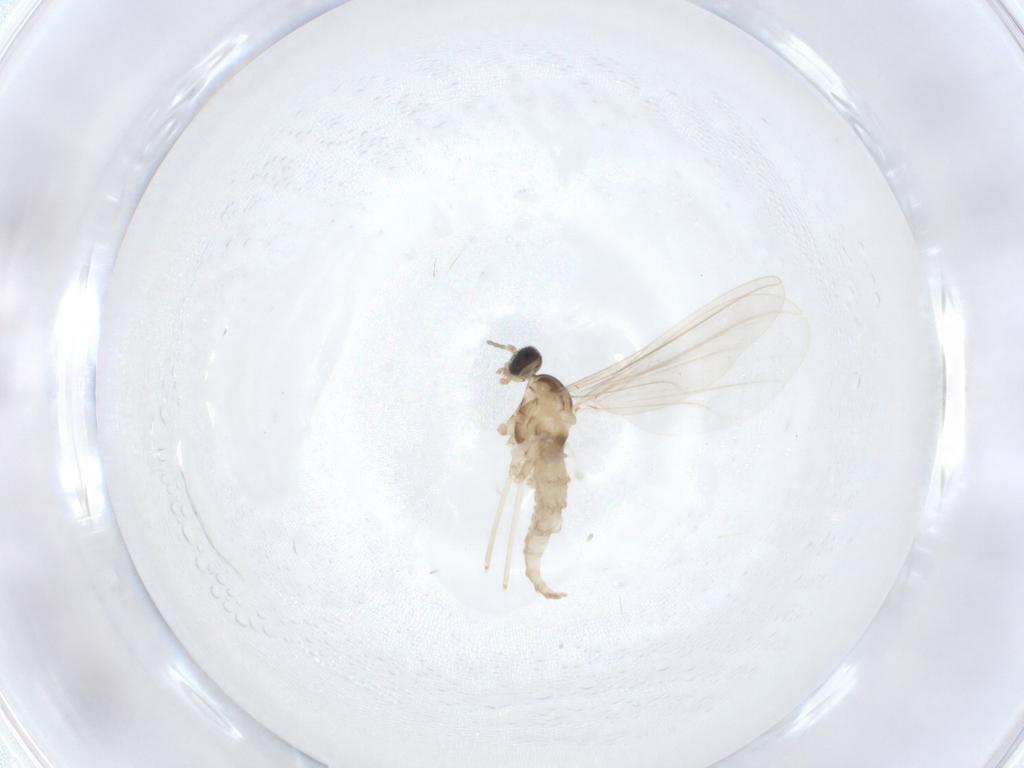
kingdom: Animalia
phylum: Arthropoda
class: Insecta
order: Diptera
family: Cecidomyiidae
